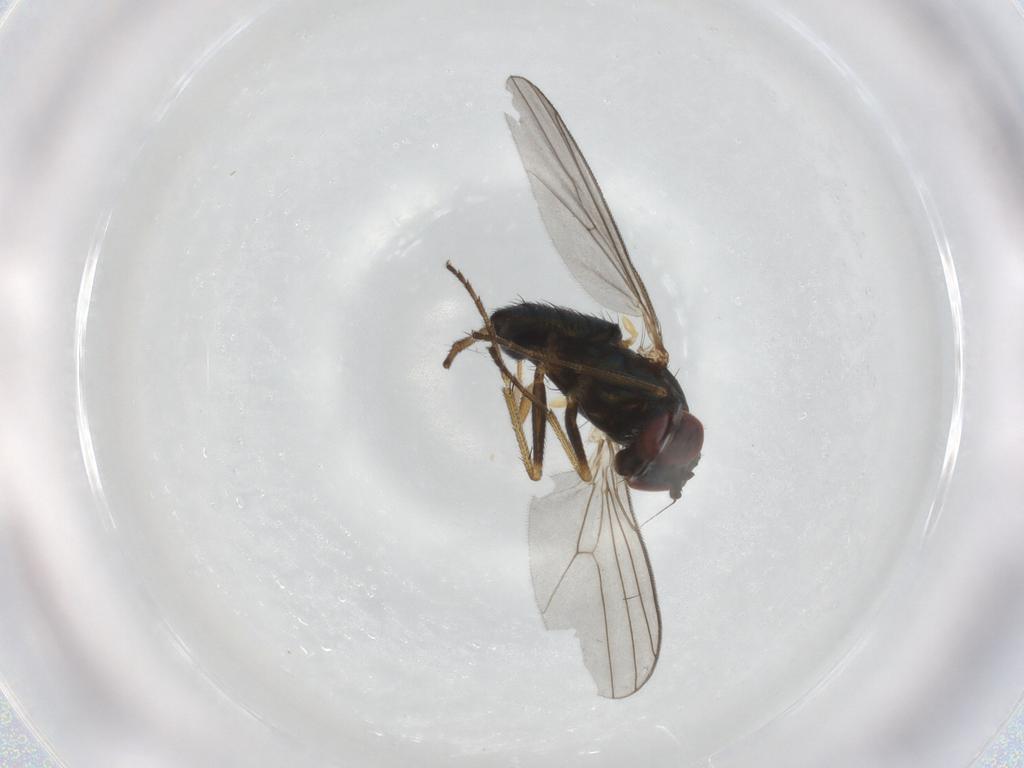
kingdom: Animalia
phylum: Arthropoda
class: Insecta
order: Diptera
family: Dolichopodidae
